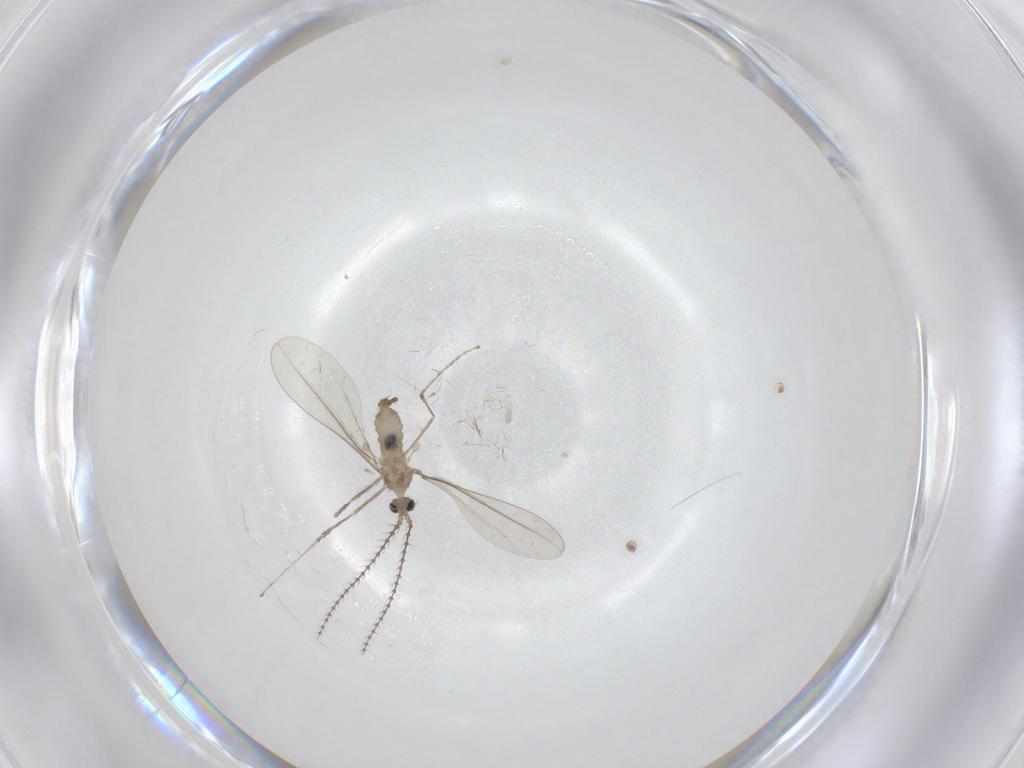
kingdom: Animalia
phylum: Arthropoda
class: Insecta
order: Diptera
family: Cecidomyiidae
